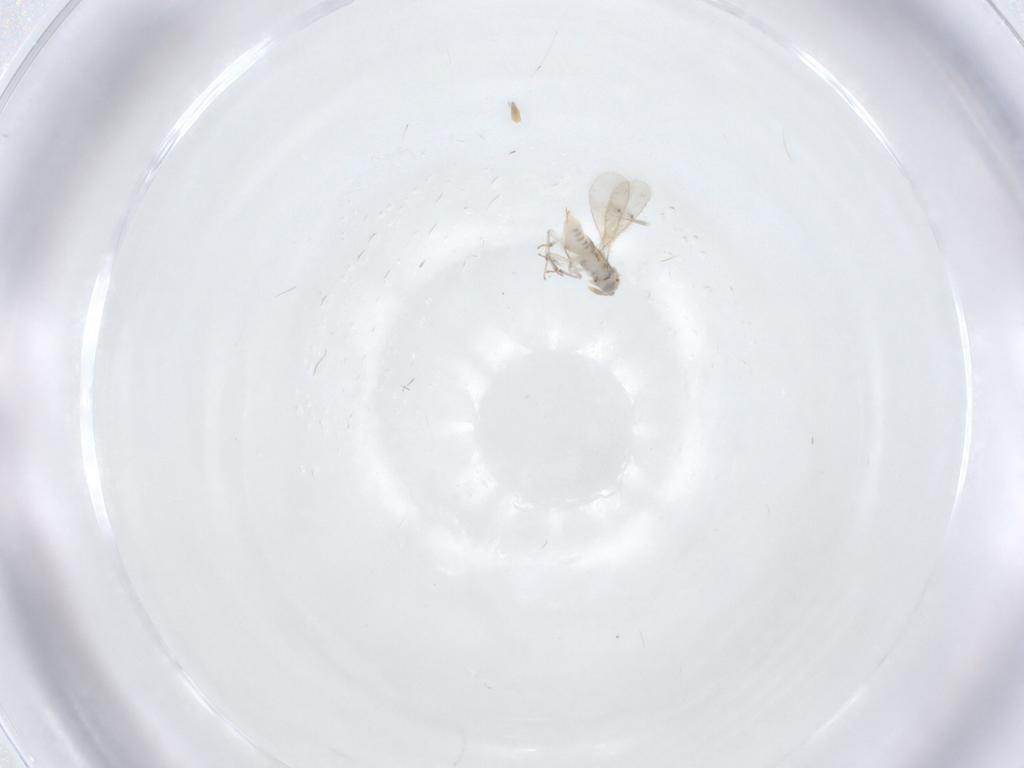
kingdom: Animalia
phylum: Arthropoda
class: Insecta
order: Hymenoptera
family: Aphelinidae
